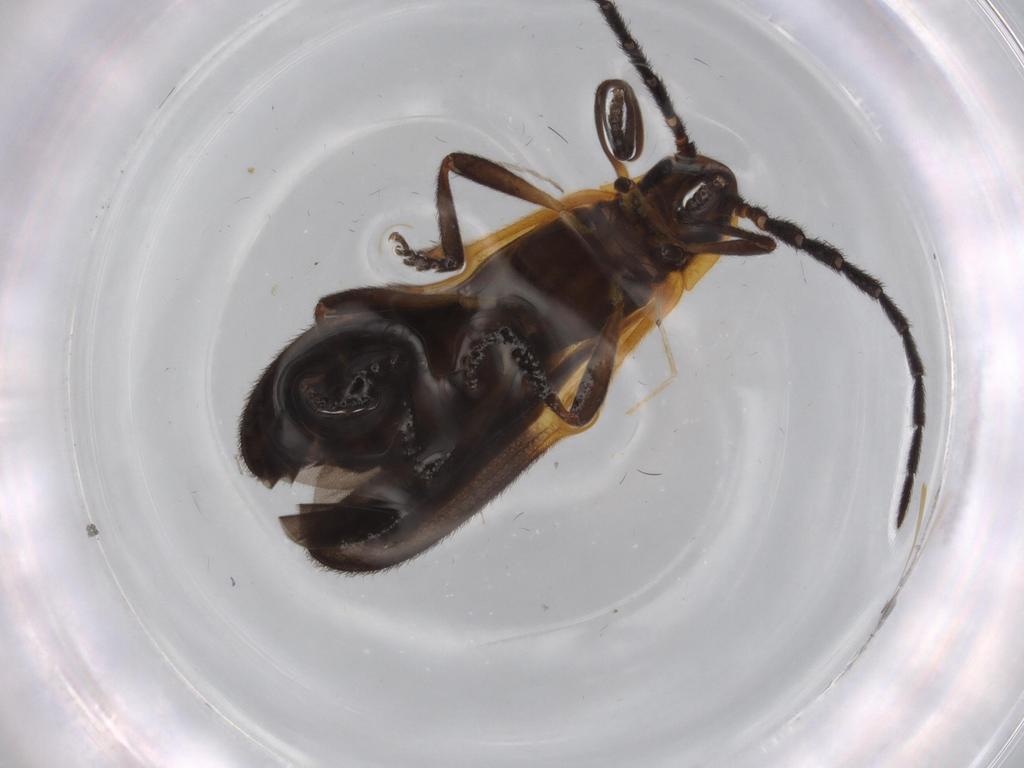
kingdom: Animalia
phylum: Arthropoda
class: Insecta
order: Coleoptera
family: Lycidae
